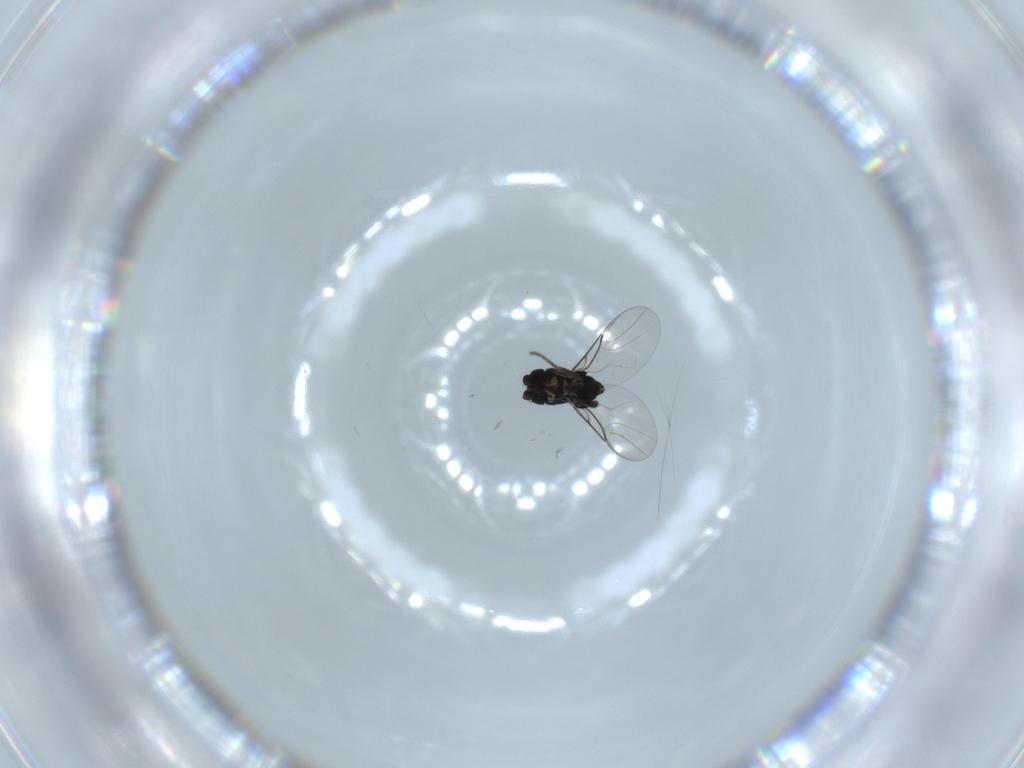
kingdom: Animalia
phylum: Arthropoda
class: Insecta
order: Diptera
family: Phoridae
